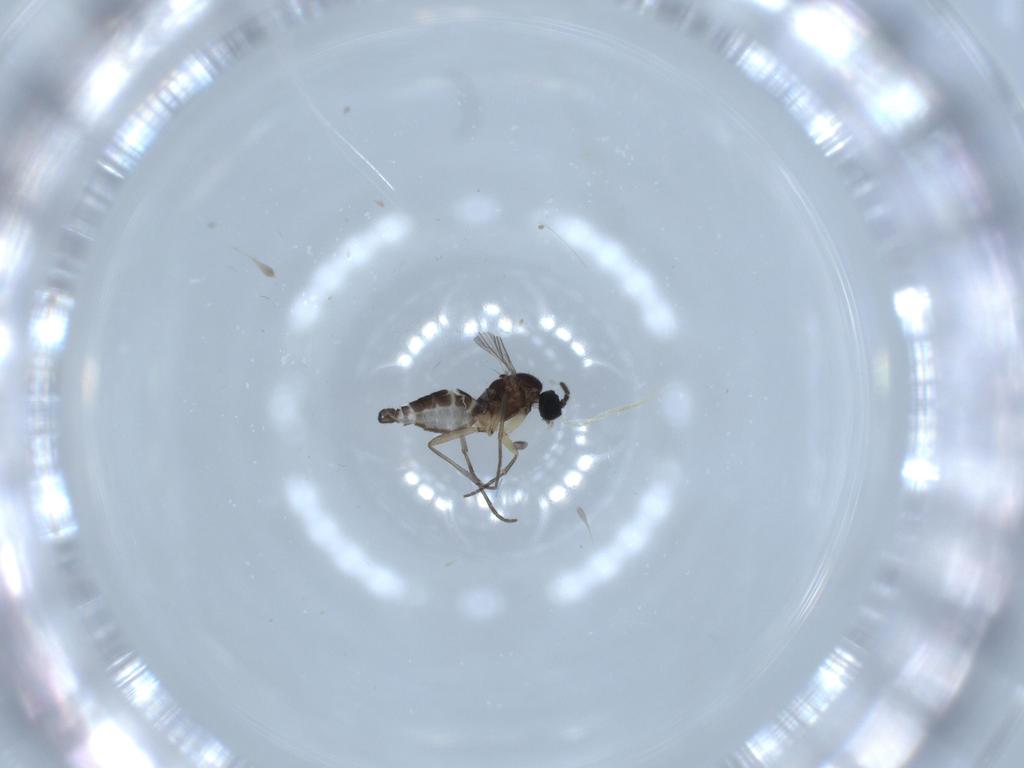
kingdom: Animalia
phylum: Arthropoda
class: Insecta
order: Diptera
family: Sciaridae
